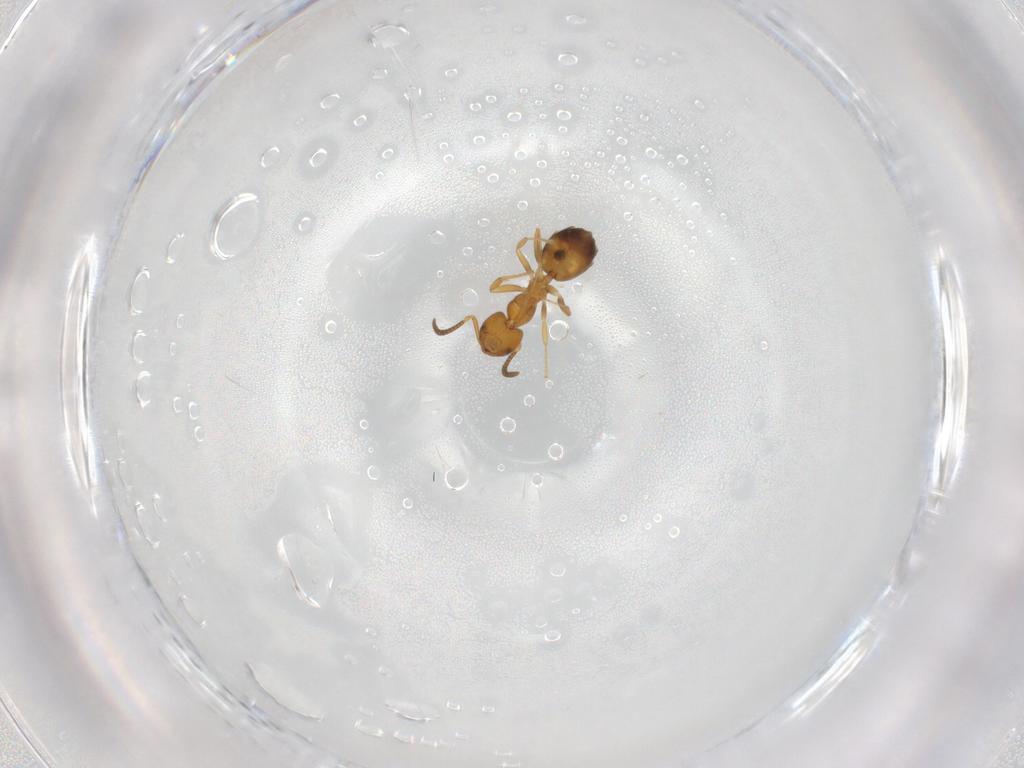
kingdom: Animalia
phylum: Arthropoda
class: Insecta
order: Hymenoptera
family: Formicidae
